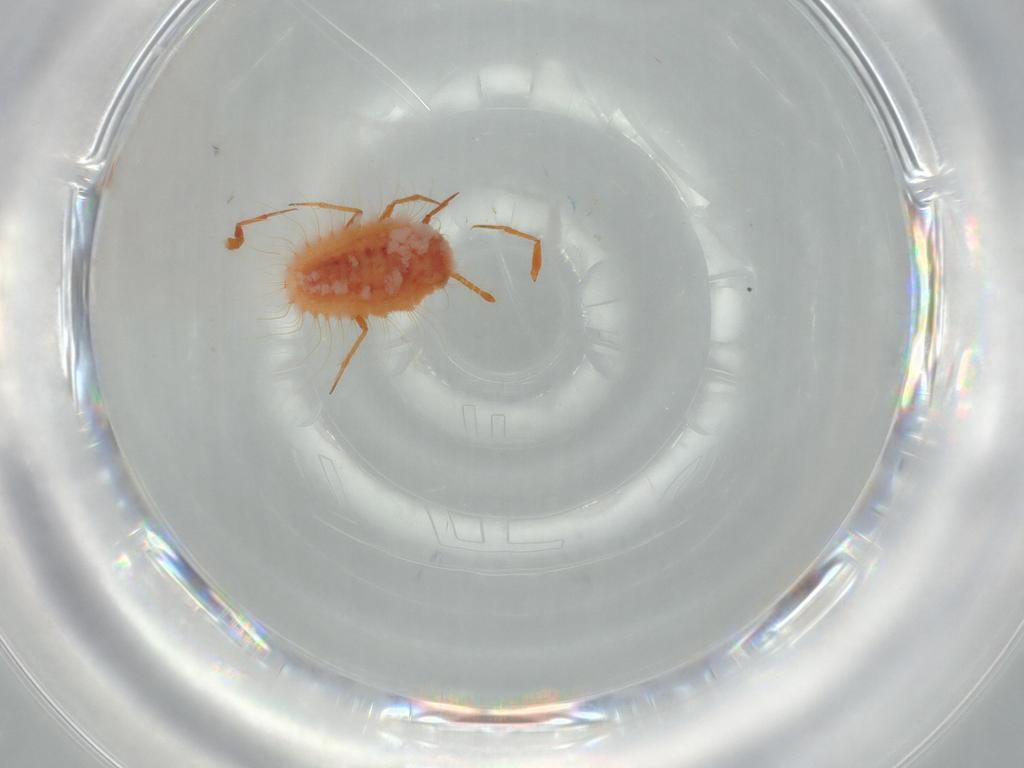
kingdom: Animalia
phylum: Arthropoda
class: Insecta
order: Hemiptera
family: Coccoidea_incertae_sedis
